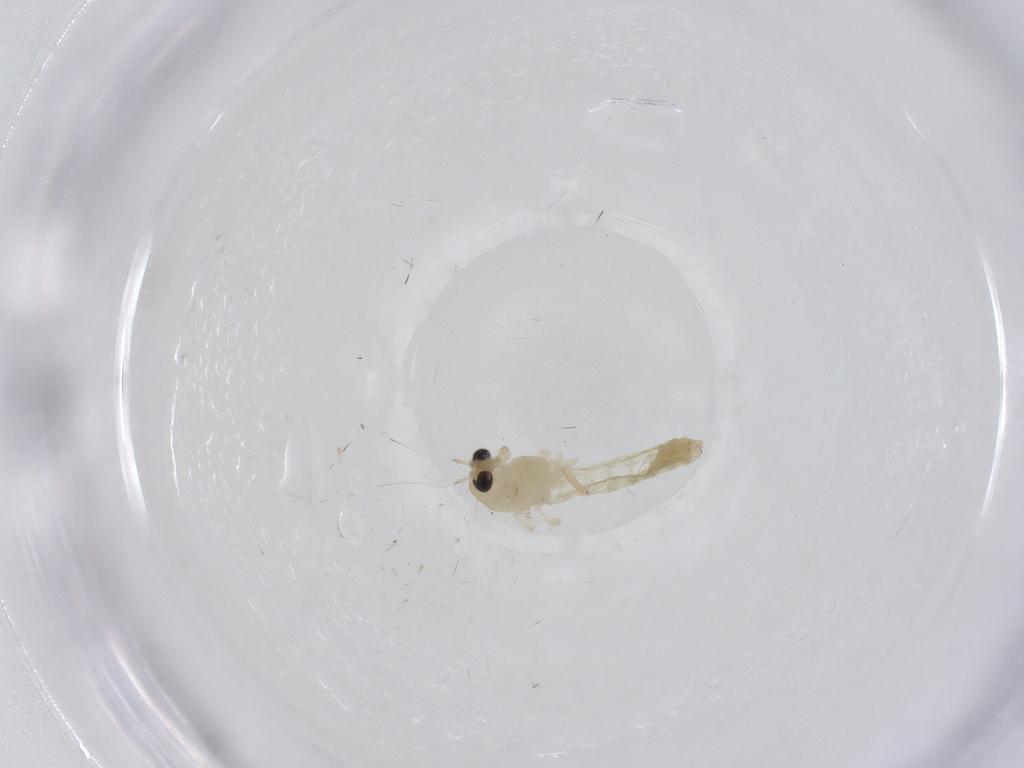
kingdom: Animalia
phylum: Arthropoda
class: Insecta
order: Diptera
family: Chironomidae
